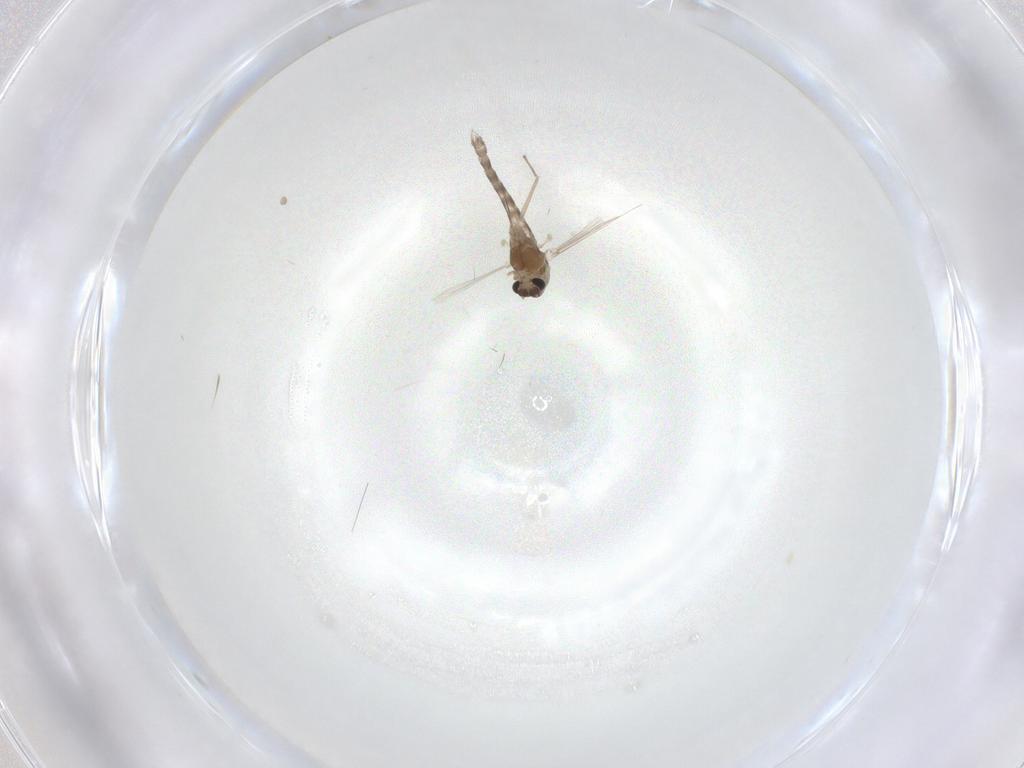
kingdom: Animalia
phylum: Arthropoda
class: Insecta
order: Diptera
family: Chironomidae
